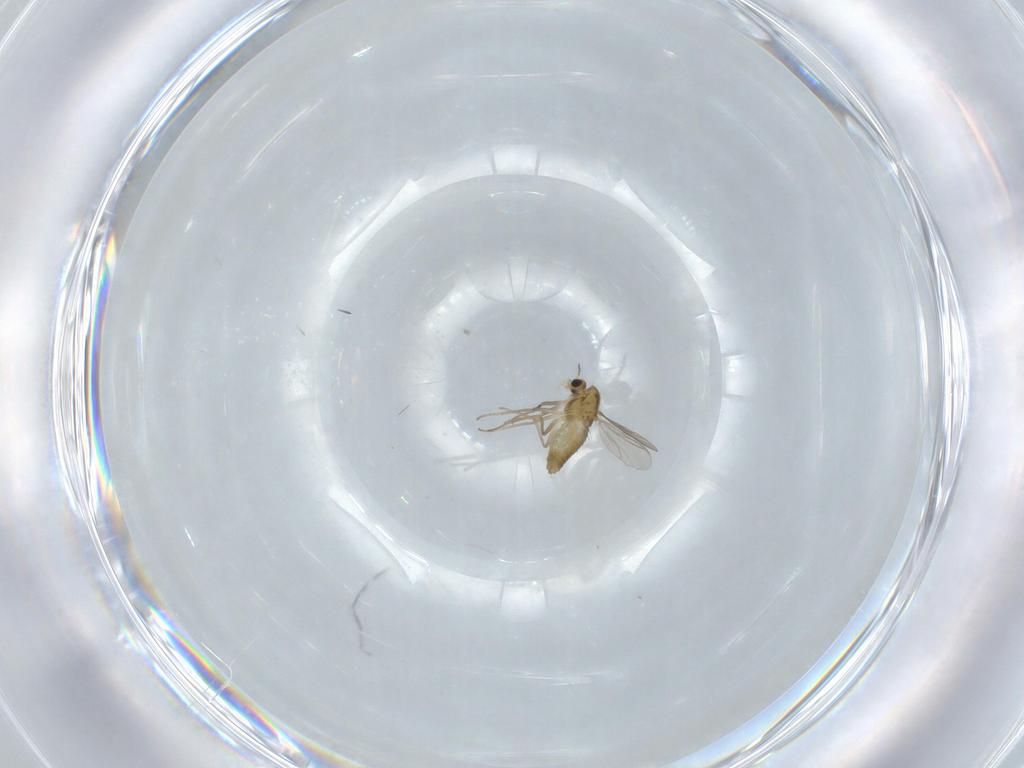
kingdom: Animalia
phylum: Arthropoda
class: Insecta
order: Diptera
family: Chironomidae
